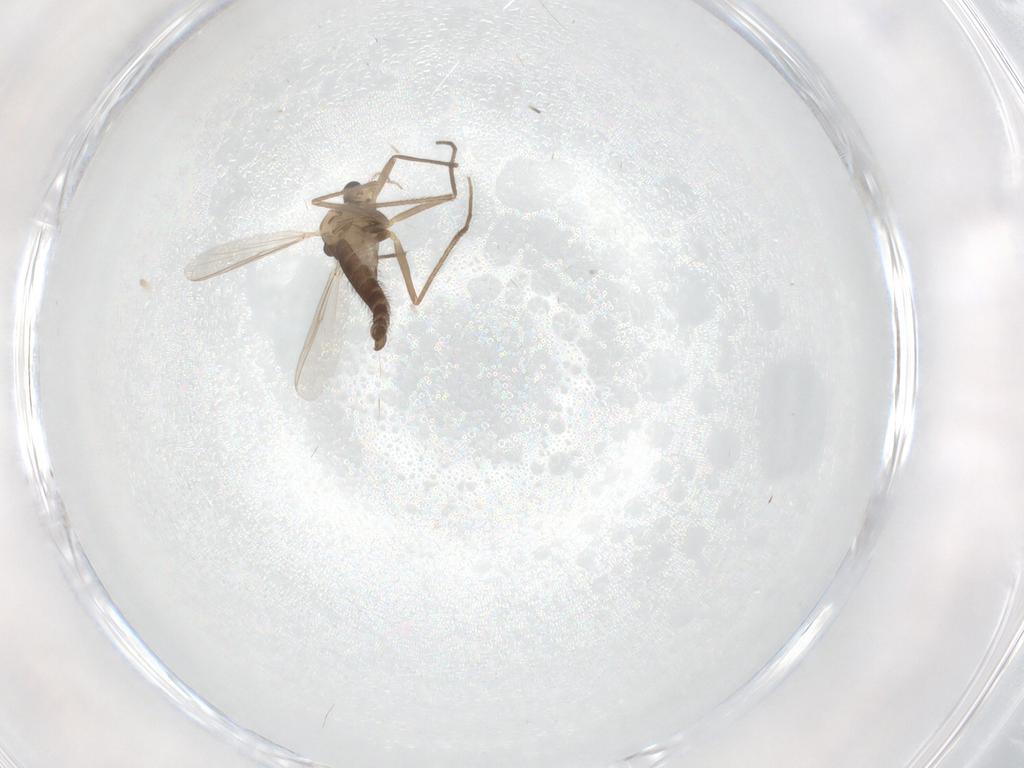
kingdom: Animalia
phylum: Arthropoda
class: Insecta
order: Diptera
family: Chironomidae
